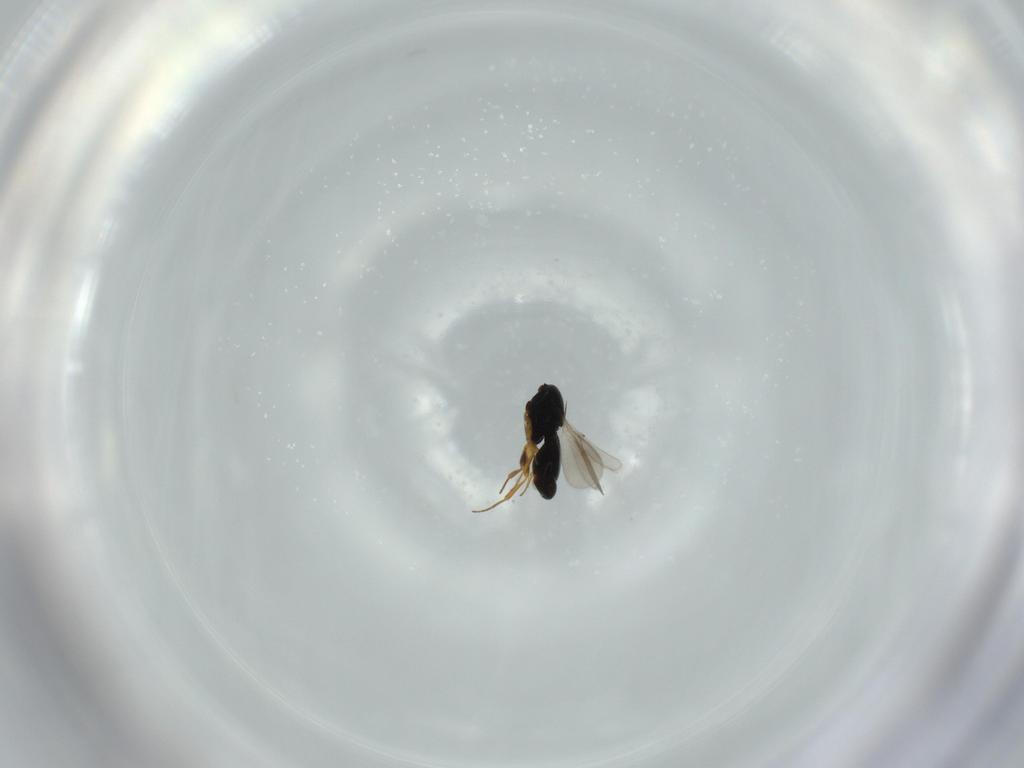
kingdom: Animalia
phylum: Arthropoda
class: Insecta
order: Hymenoptera
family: Scelionidae
